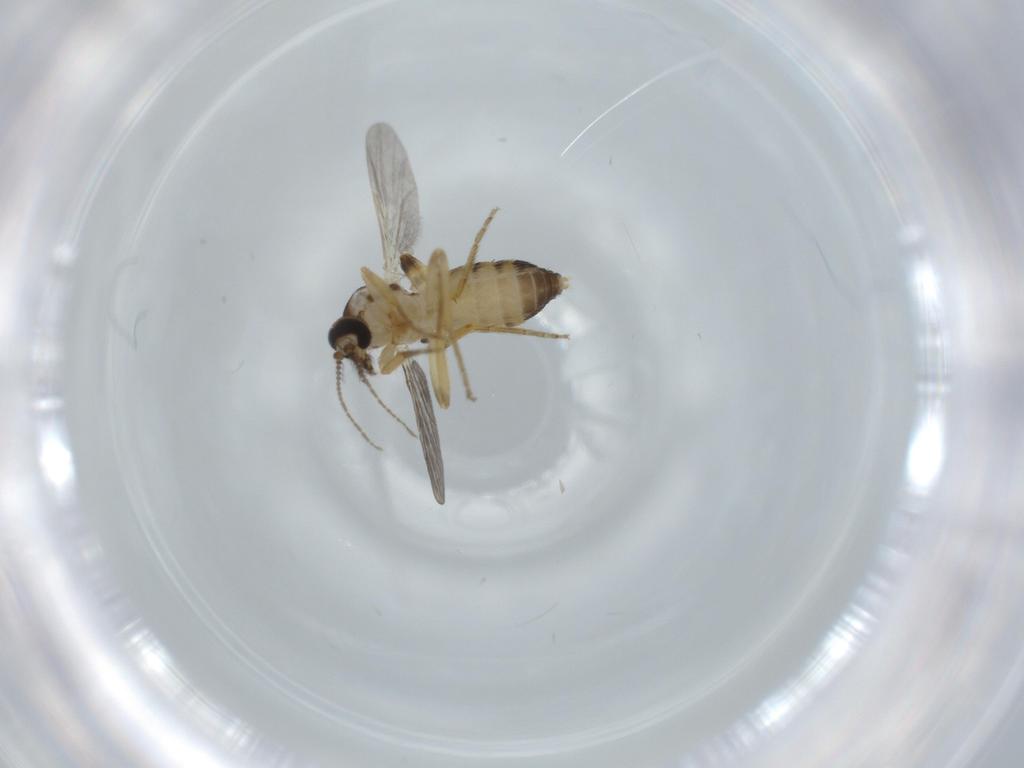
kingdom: Animalia
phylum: Arthropoda
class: Insecta
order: Diptera
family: Ceratopogonidae
